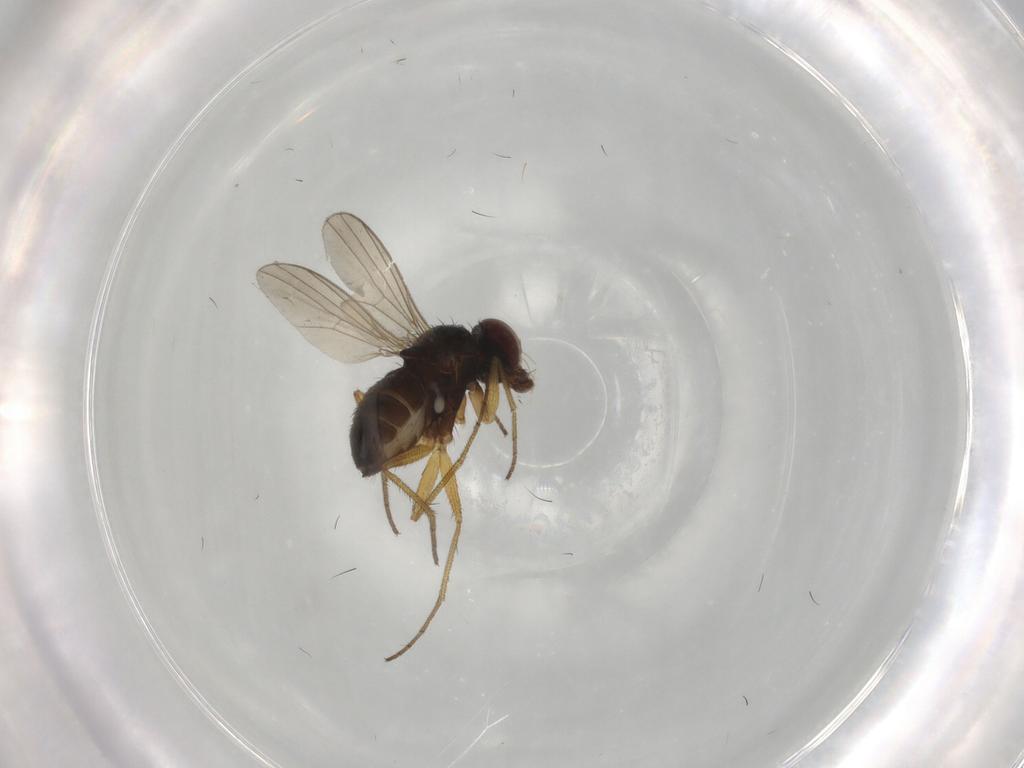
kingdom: Animalia
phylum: Arthropoda
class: Insecta
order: Diptera
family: Dolichopodidae
